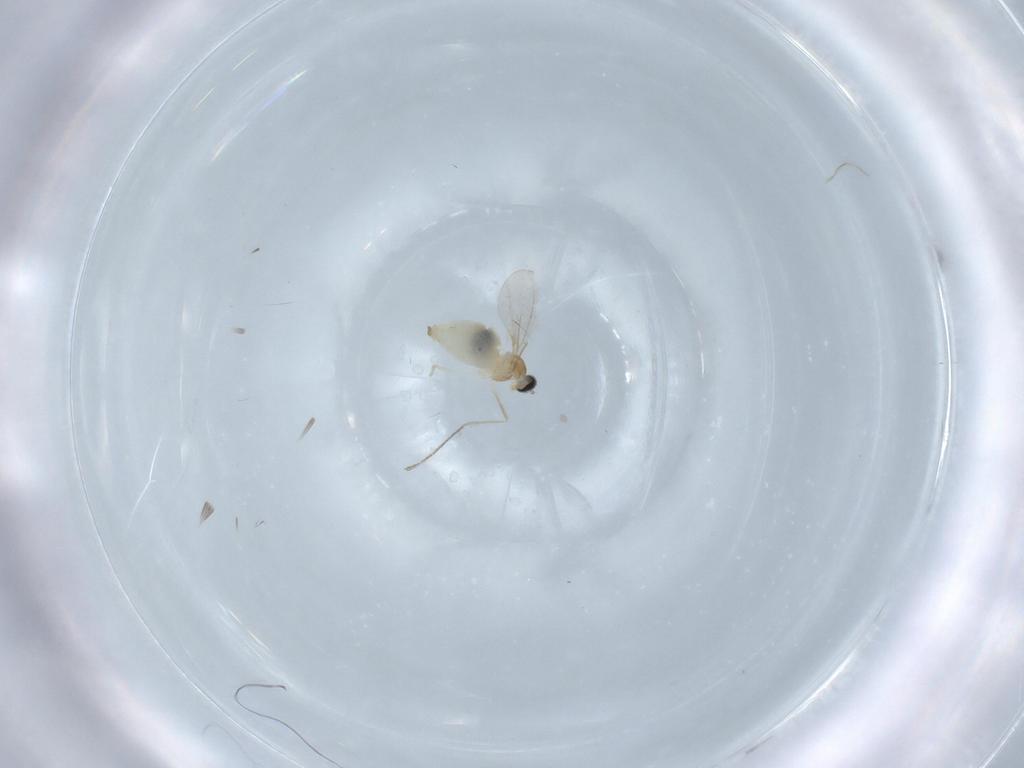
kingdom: Animalia
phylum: Arthropoda
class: Insecta
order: Diptera
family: Cecidomyiidae
